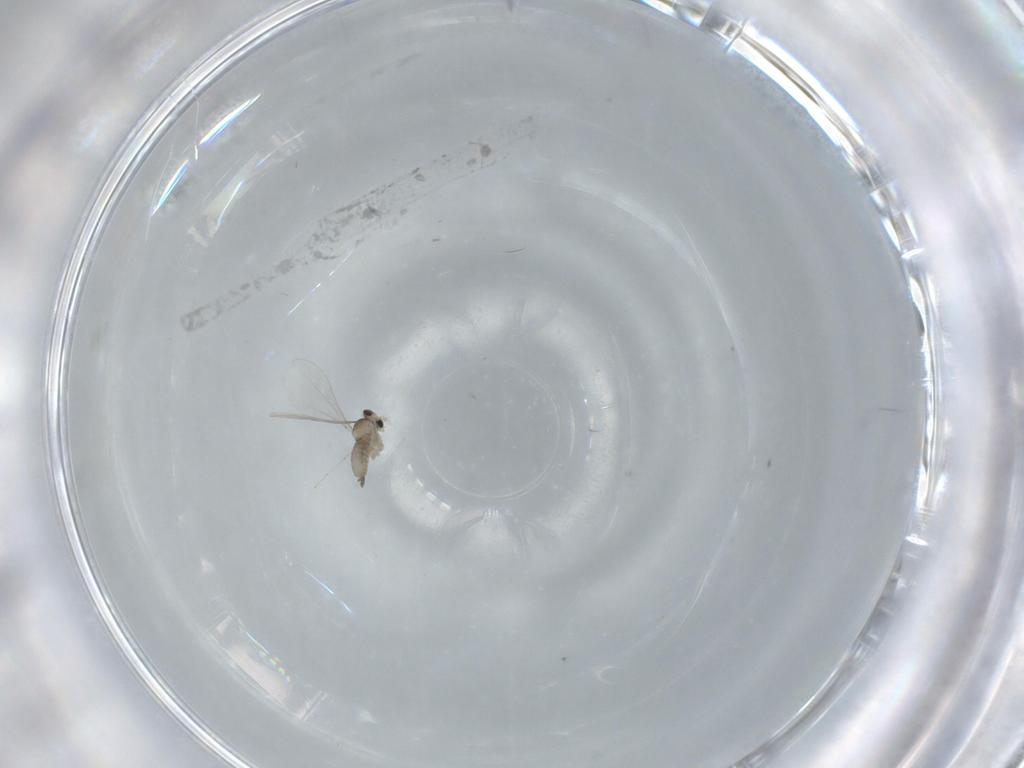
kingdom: Animalia
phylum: Arthropoda
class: Insecta
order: Diptera
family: Cecidomyiidae
